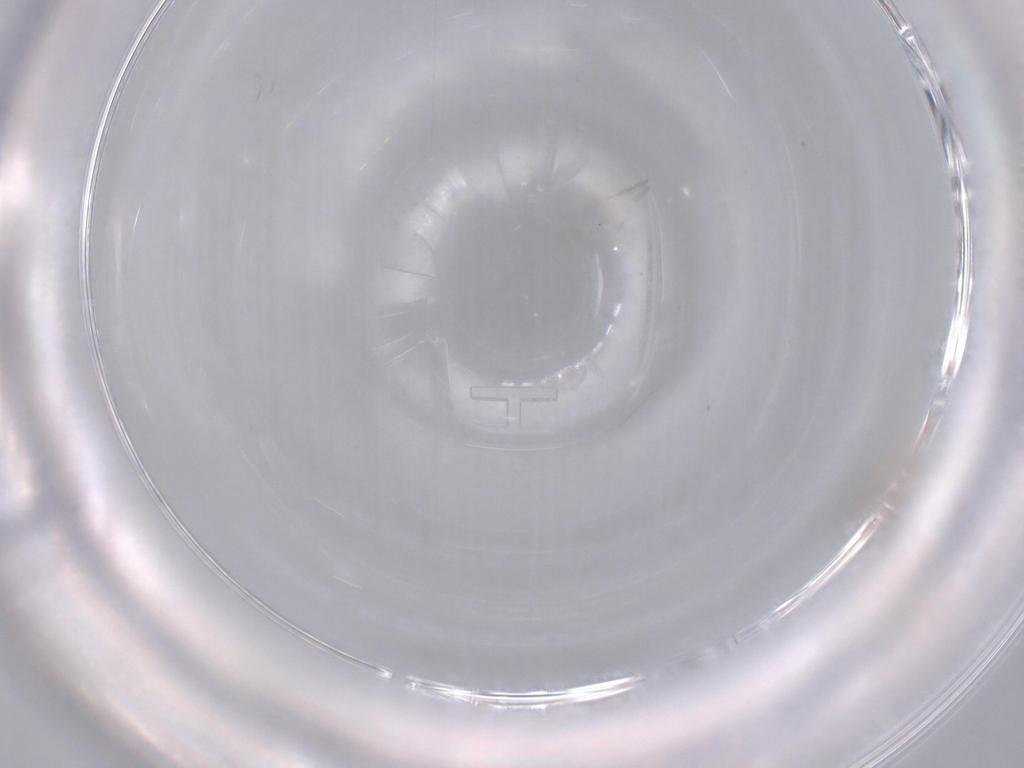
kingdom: Animalia
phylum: Arthropoda
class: Insecta
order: Diptera
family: Cecidomyiidae
